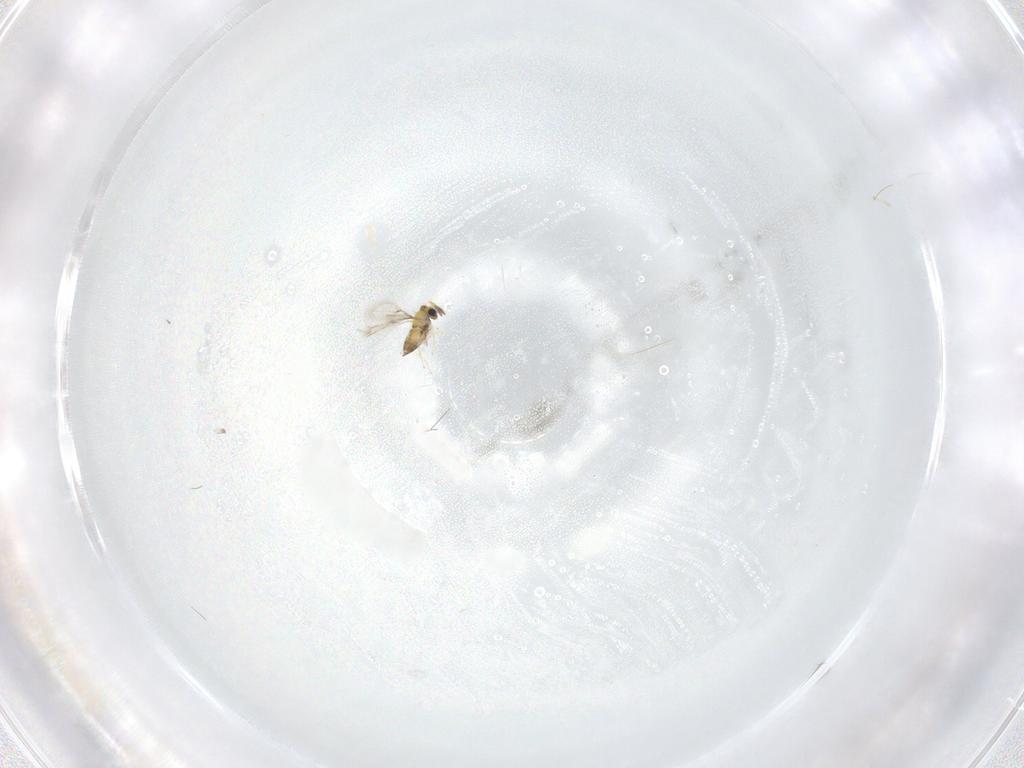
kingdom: Animalia
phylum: Arthropoda
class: Insecta
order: Hymenoptera
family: Trichogrammatidae
